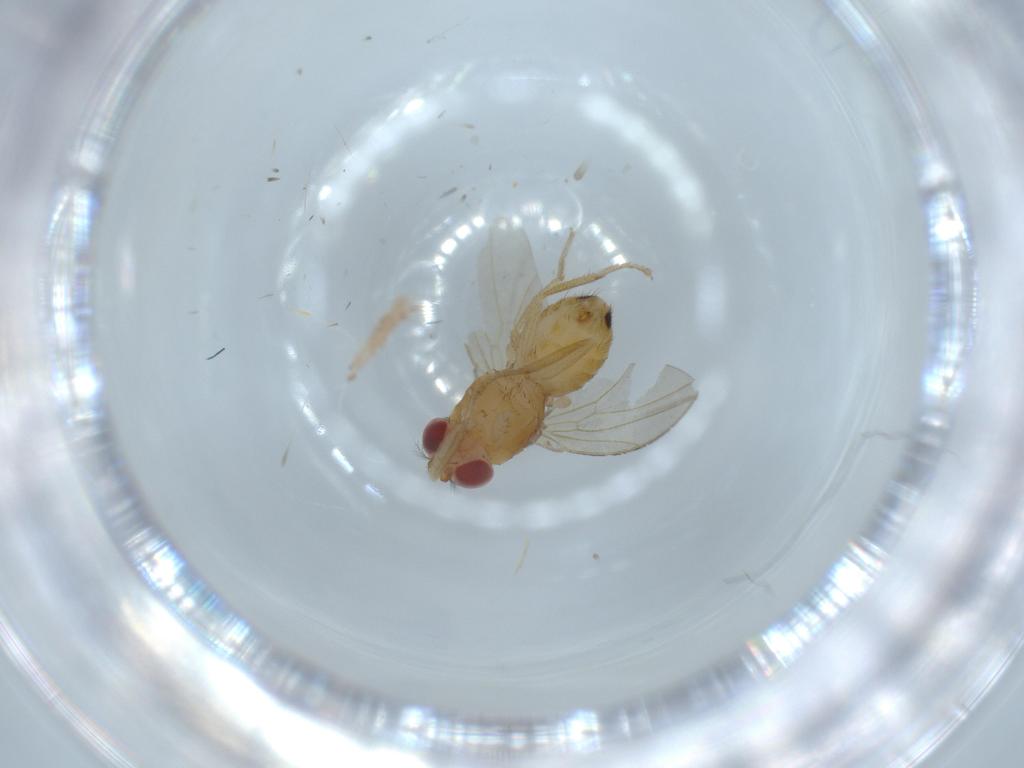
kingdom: Animalia
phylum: Arthropoda
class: Insecta
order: Diptera
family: Drosophilidae
